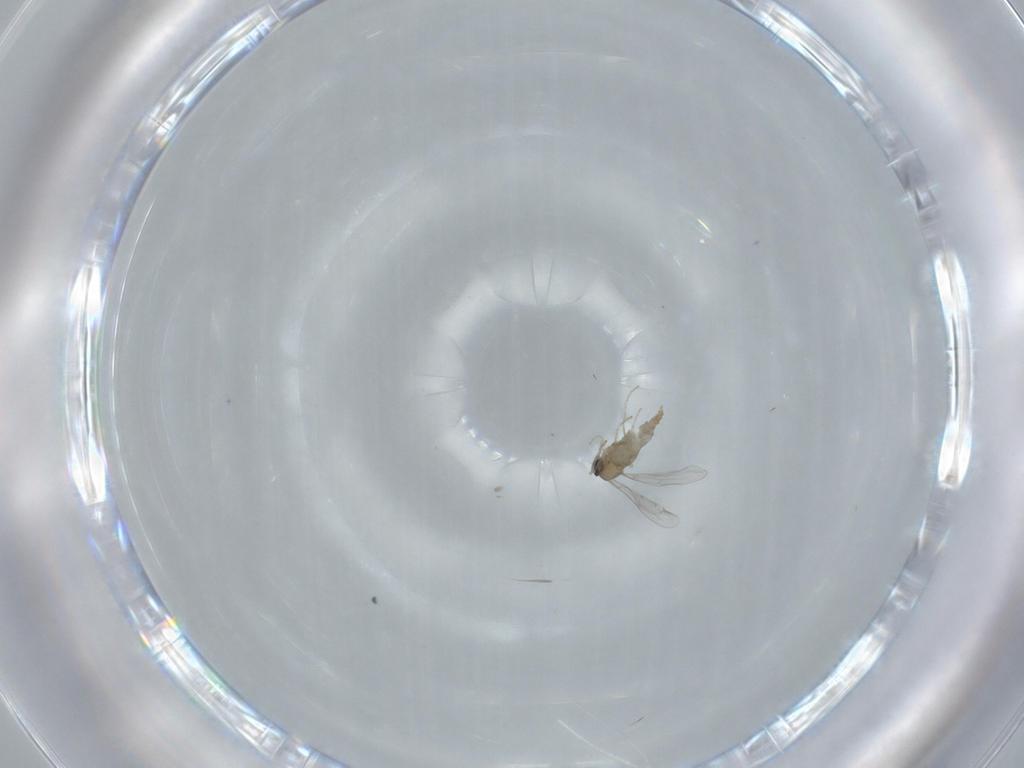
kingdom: Animalia
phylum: Arthropoda
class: Insecta
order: Diptera
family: Cecidomyiidae
